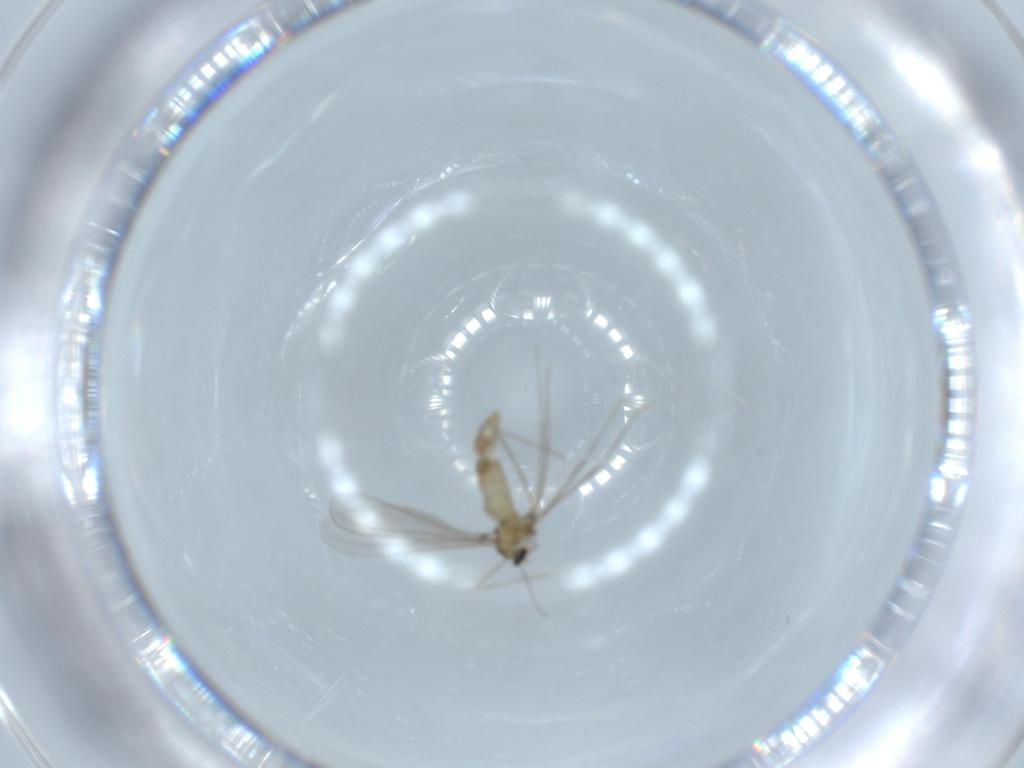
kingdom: Animalia
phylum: Arthropoda
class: Insecta
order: Diptera
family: Cecidomyiidae
